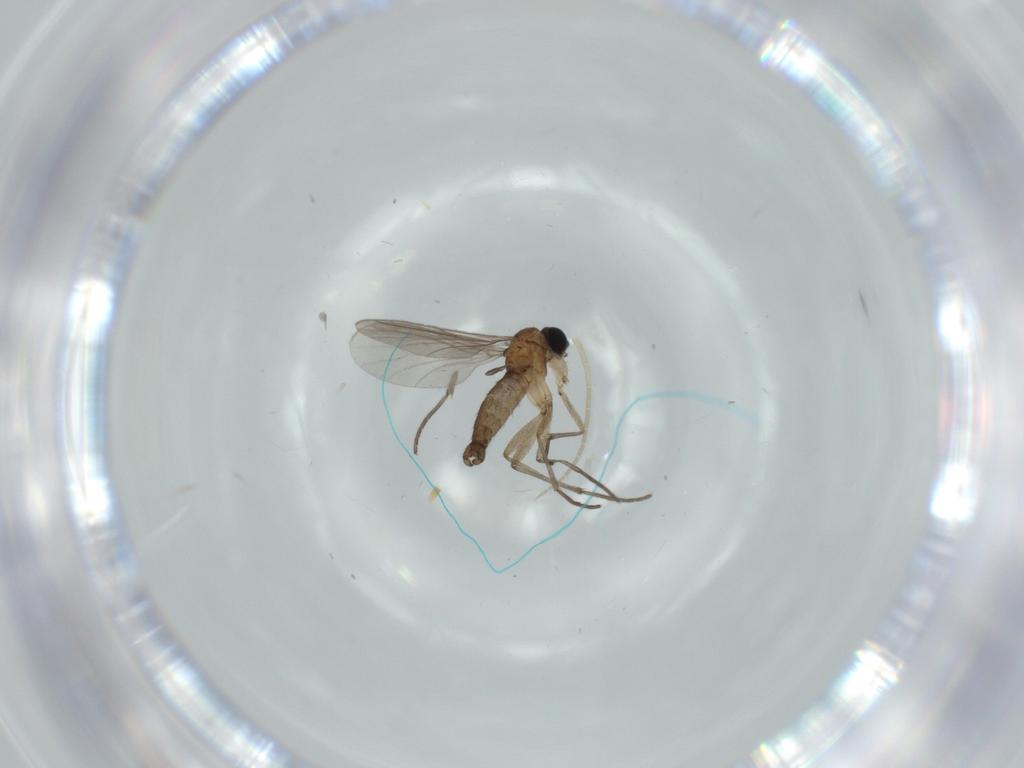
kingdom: Animalia
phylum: Arthropoda
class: Insecta
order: Diptera
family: Sciaridae
